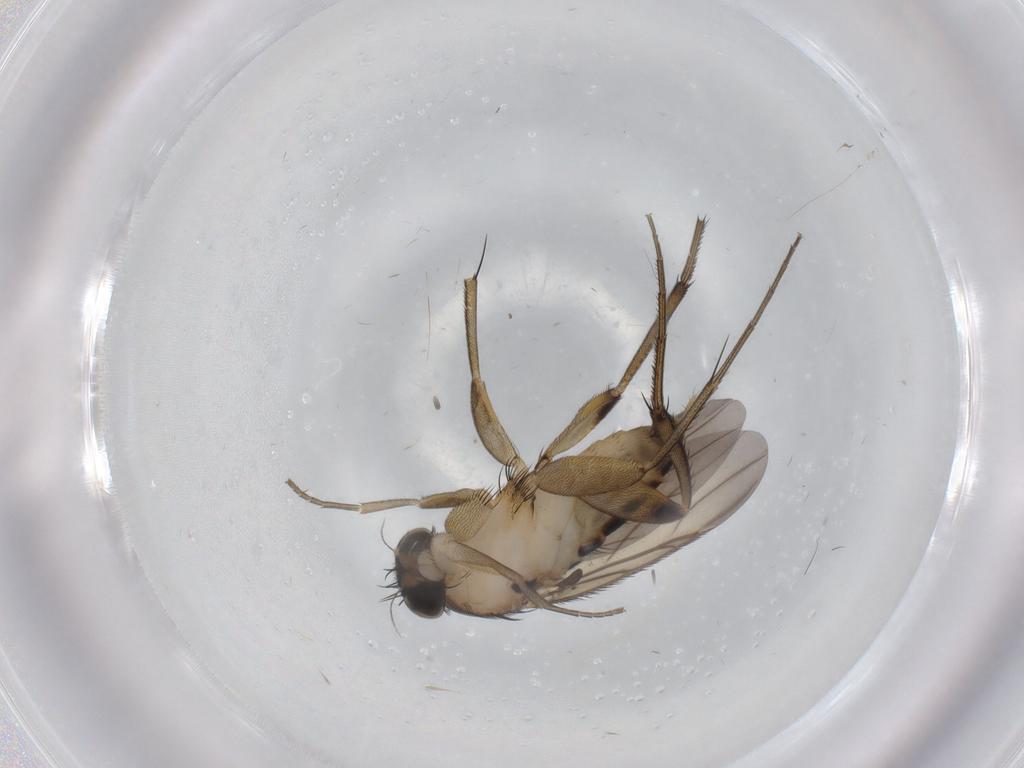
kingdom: Animalia
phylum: Arthropoda
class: Insecta
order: Diptera
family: Phoridae
